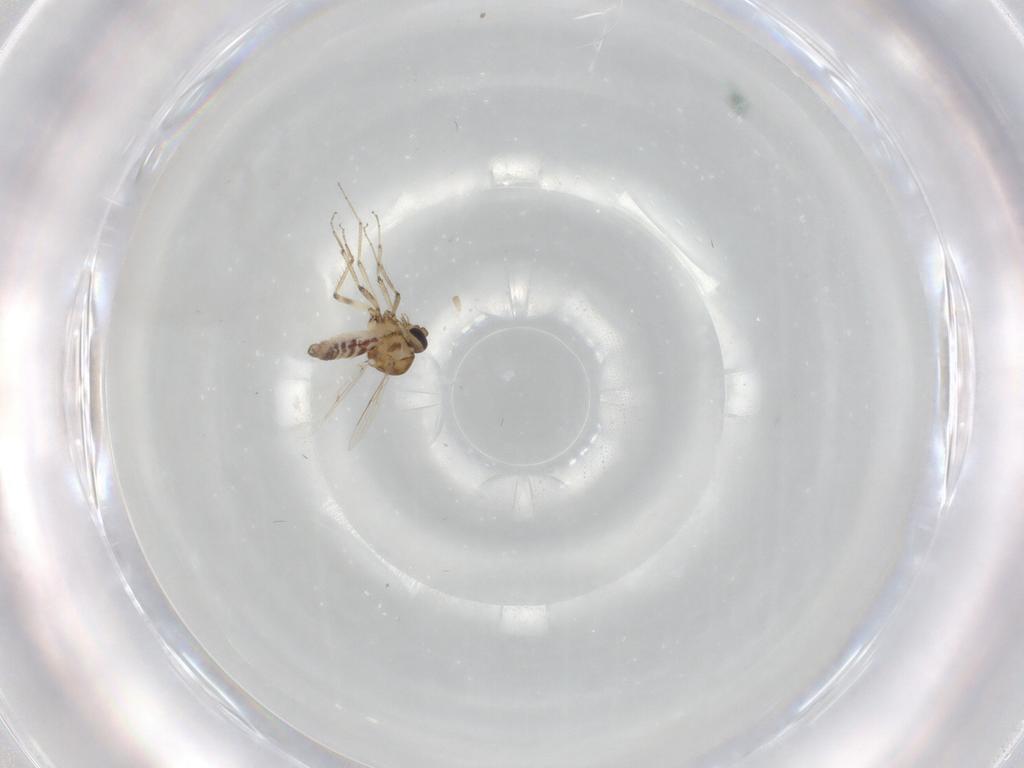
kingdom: Animalia
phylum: Arthropoda
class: Insecta
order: Diptera
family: Ceratopogonidae
